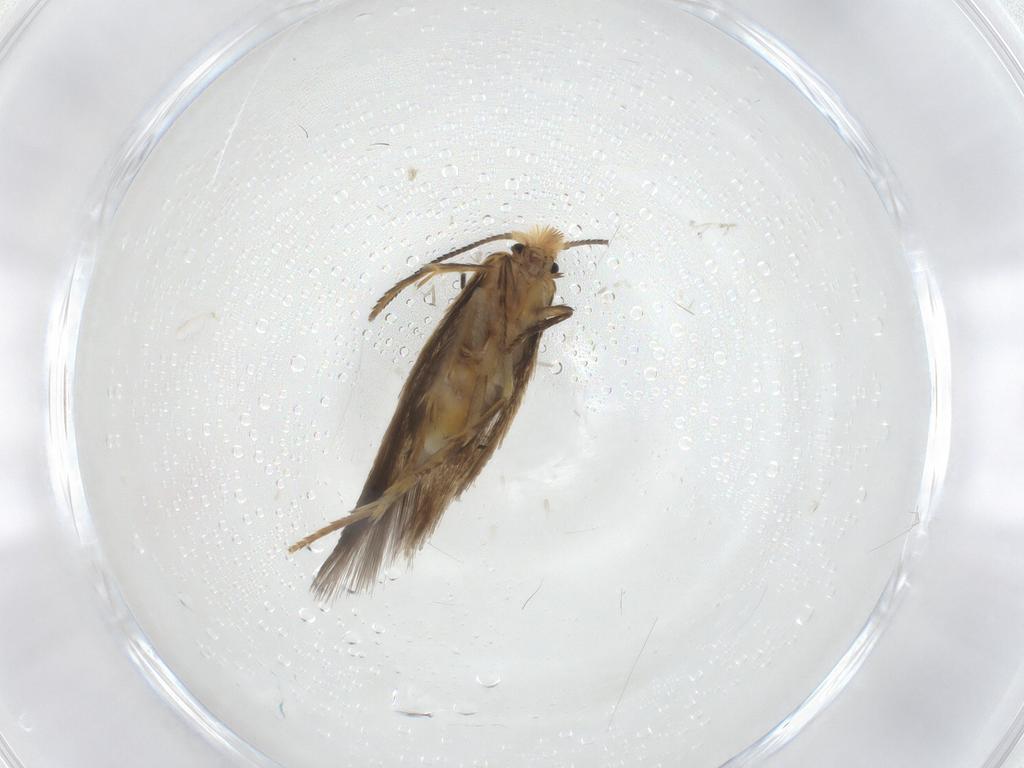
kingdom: Animalia
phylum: Arthropoda
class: Insecta
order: Lepidoptera
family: Nepticulidae
